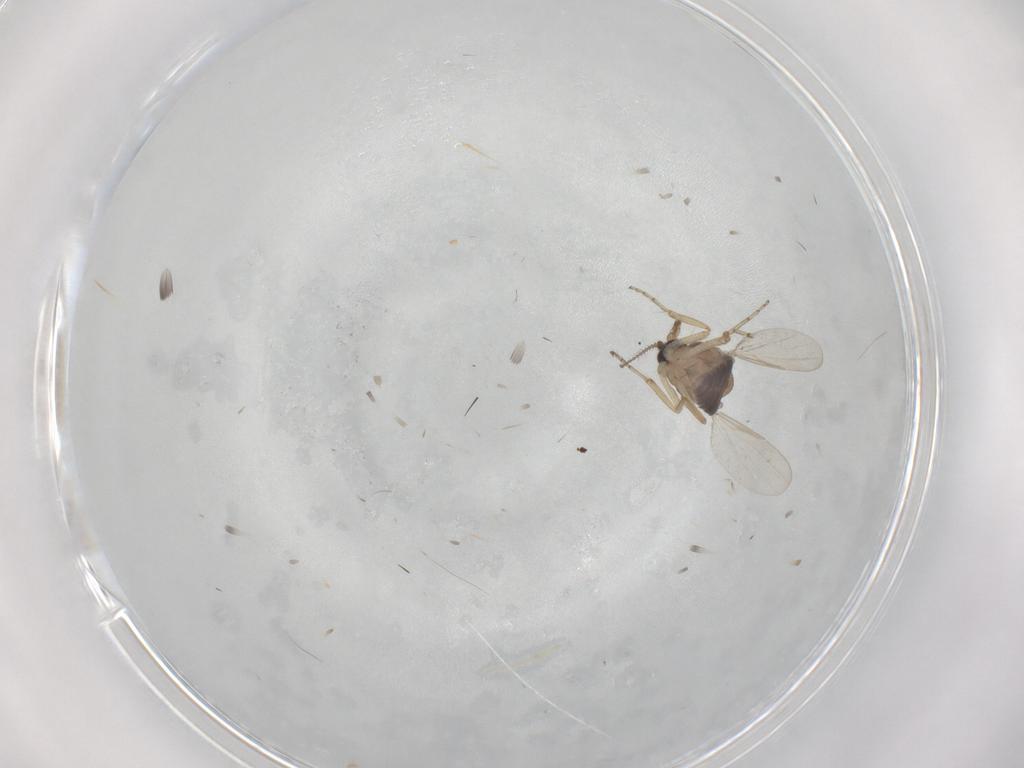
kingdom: Animalia
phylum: Arthropoda
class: Insecta
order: Diptera
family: Ceratopogonidae
